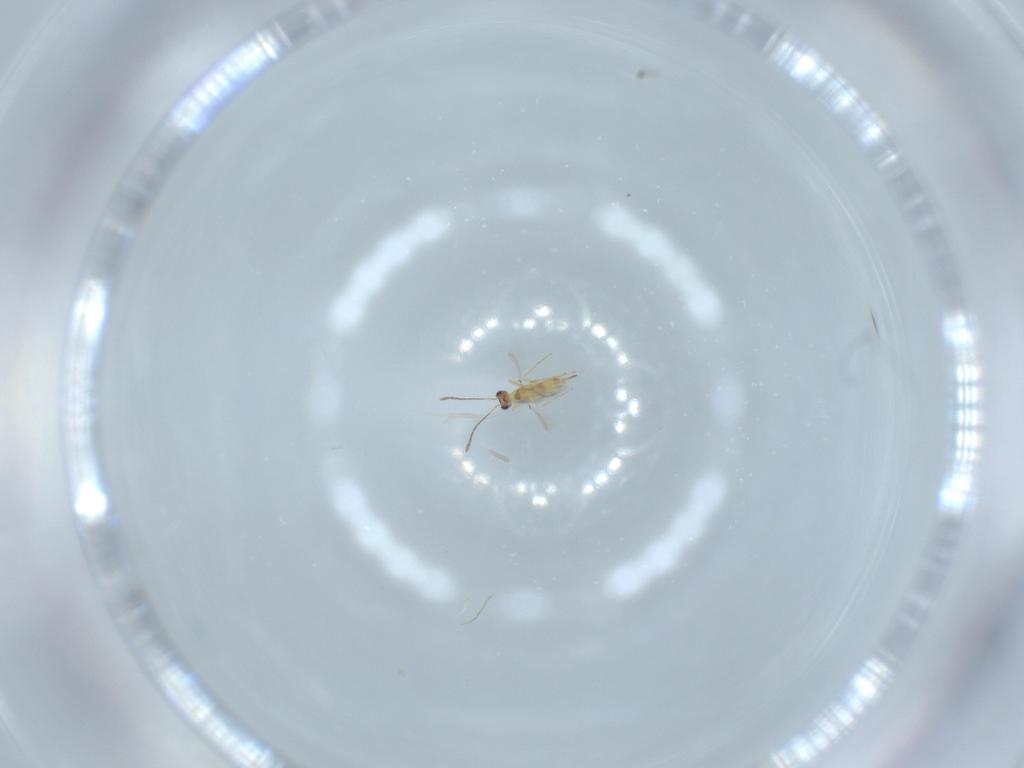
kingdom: Animalia
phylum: Arthropoda
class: Insecta
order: Hymenoptera
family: Mymaridae
